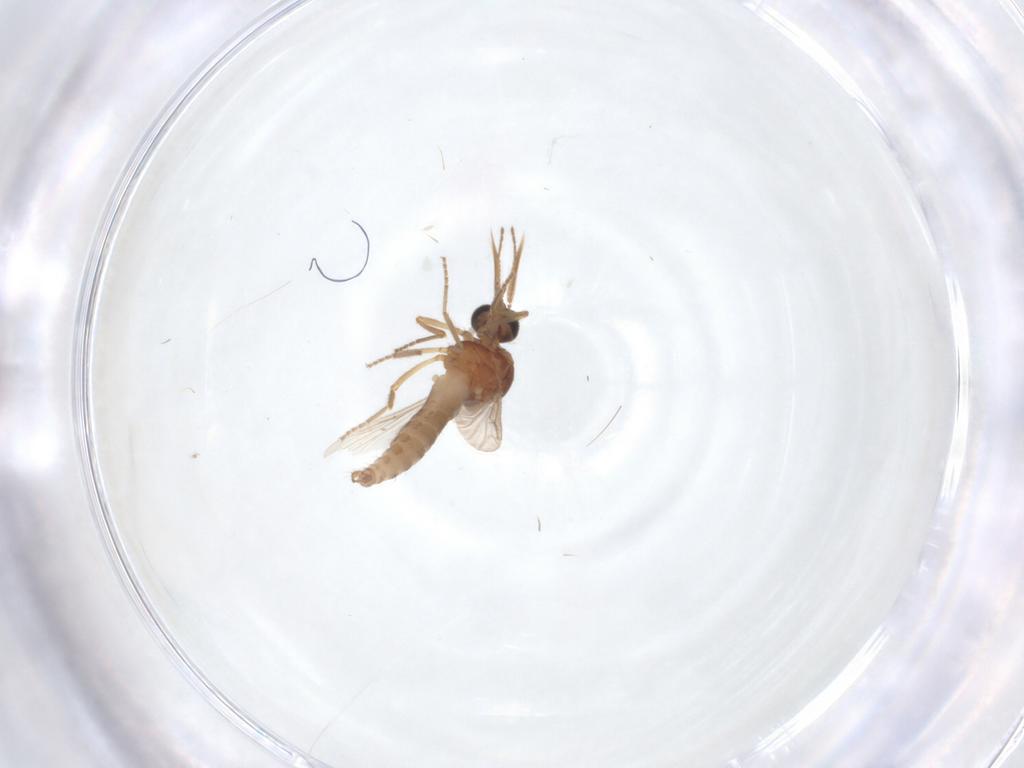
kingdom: Animalia
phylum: Arthropoda
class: Insecta
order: Diptera
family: Ceratopogonidae
